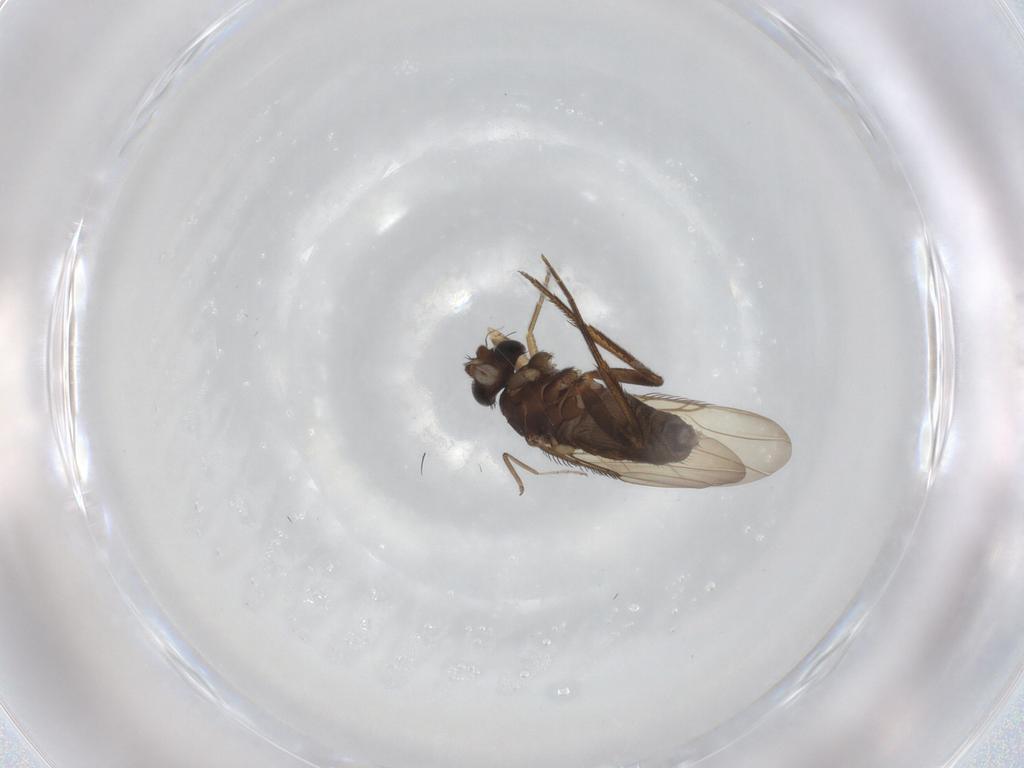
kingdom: Animalia
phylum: Arthropoda
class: Insecta
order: Diptera
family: Phoridae
